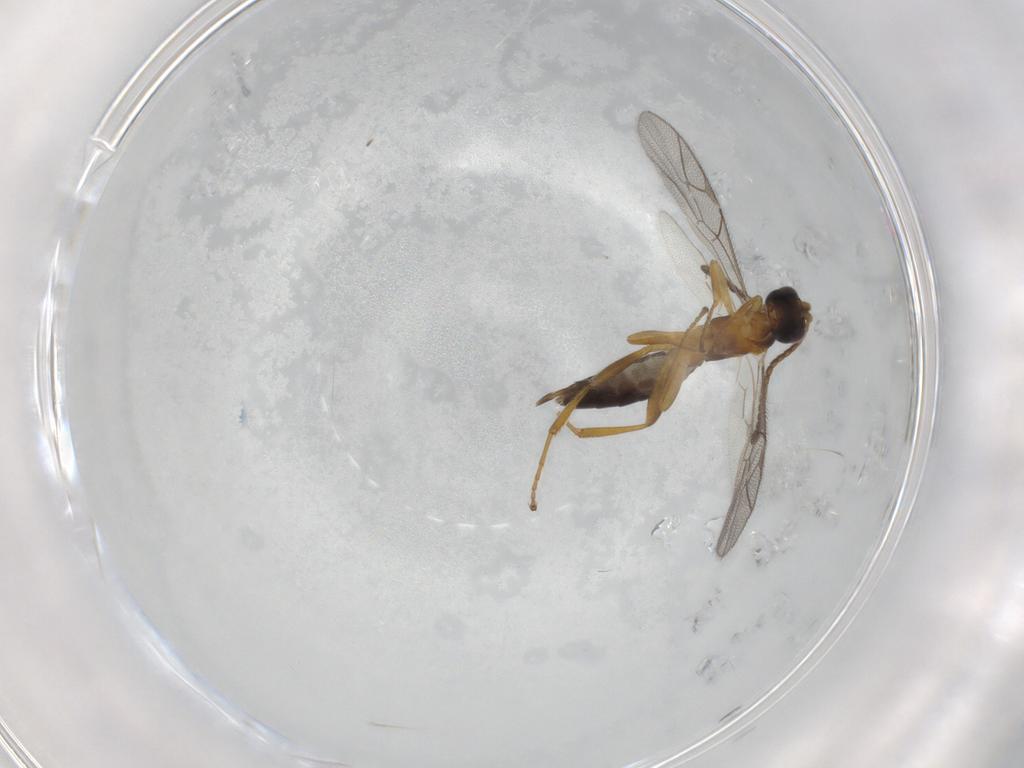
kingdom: Animalia
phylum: Arthropoda
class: Insecta
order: Hymenoptera
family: Ichneumonidae
